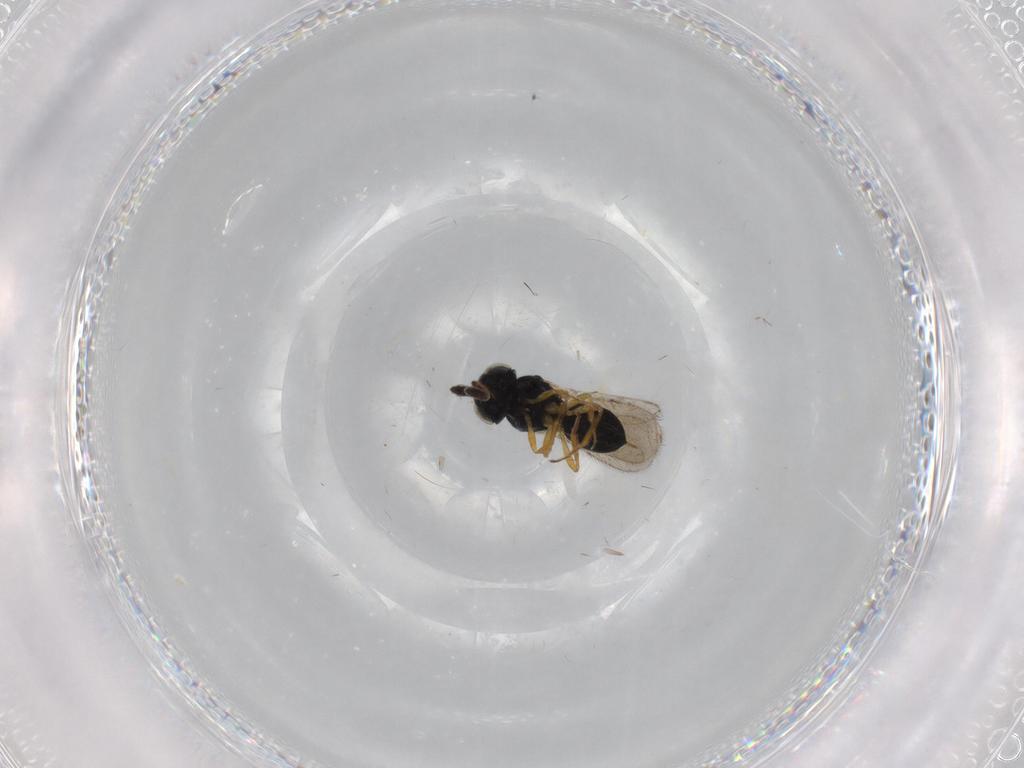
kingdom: Animalia
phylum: Arthropoda
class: Insecta
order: Hymenoptera
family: Scelionidae
